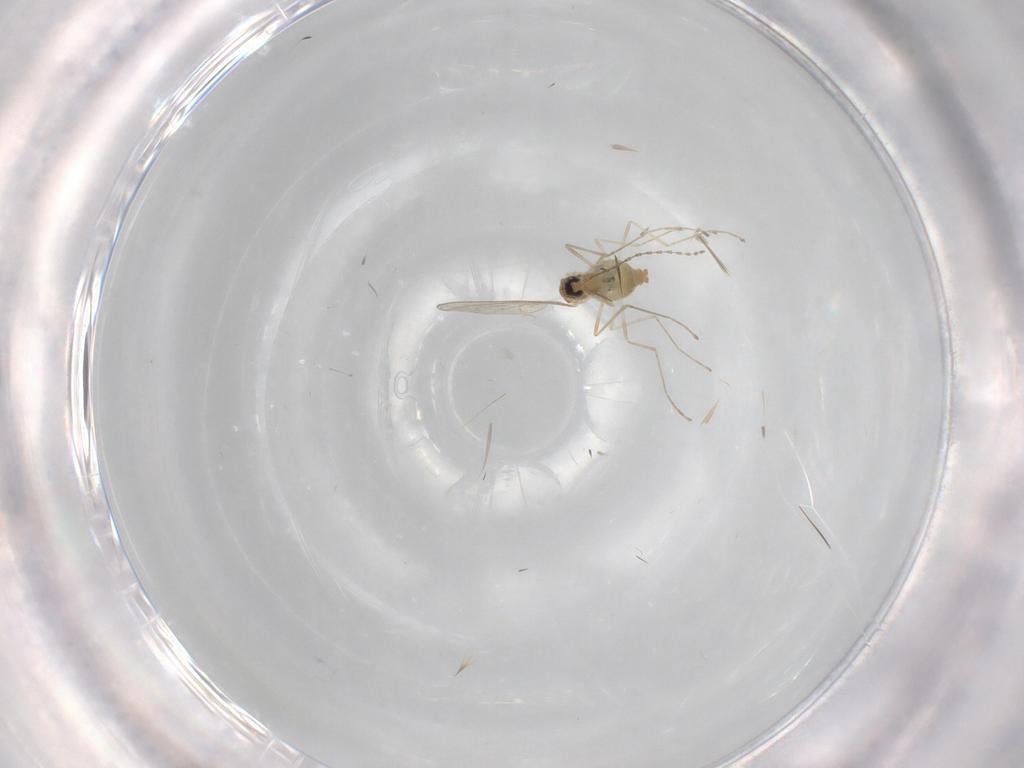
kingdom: Animalia
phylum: Arthropoda
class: Insecta
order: Diptera
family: Cecidomyiidae
